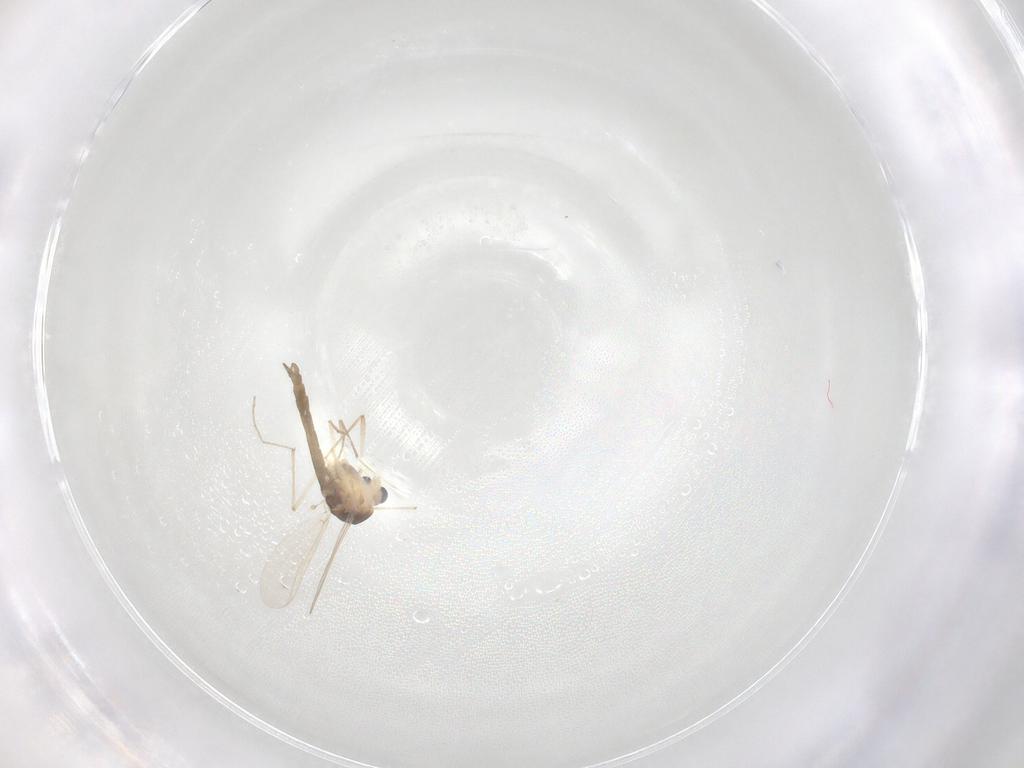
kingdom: Animalia
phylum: Arthropoda
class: Insecta
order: Diptera
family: Chironomidae
